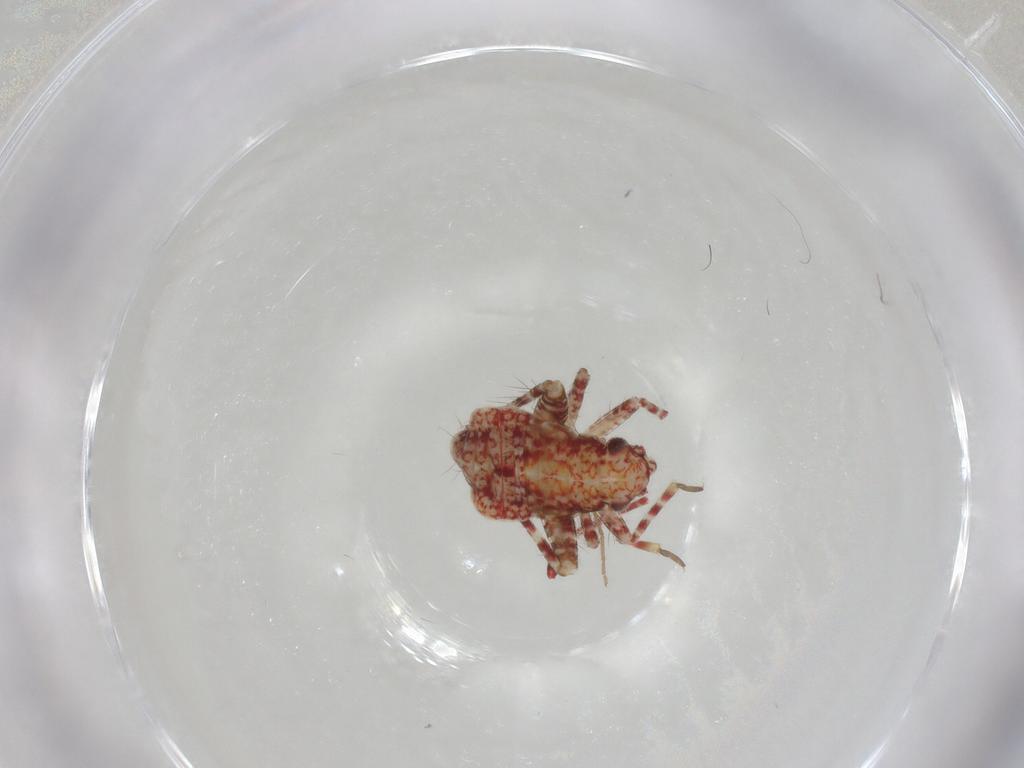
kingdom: Animalia
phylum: Arthropoda
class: Insecta
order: Hemiptera
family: Miridae
